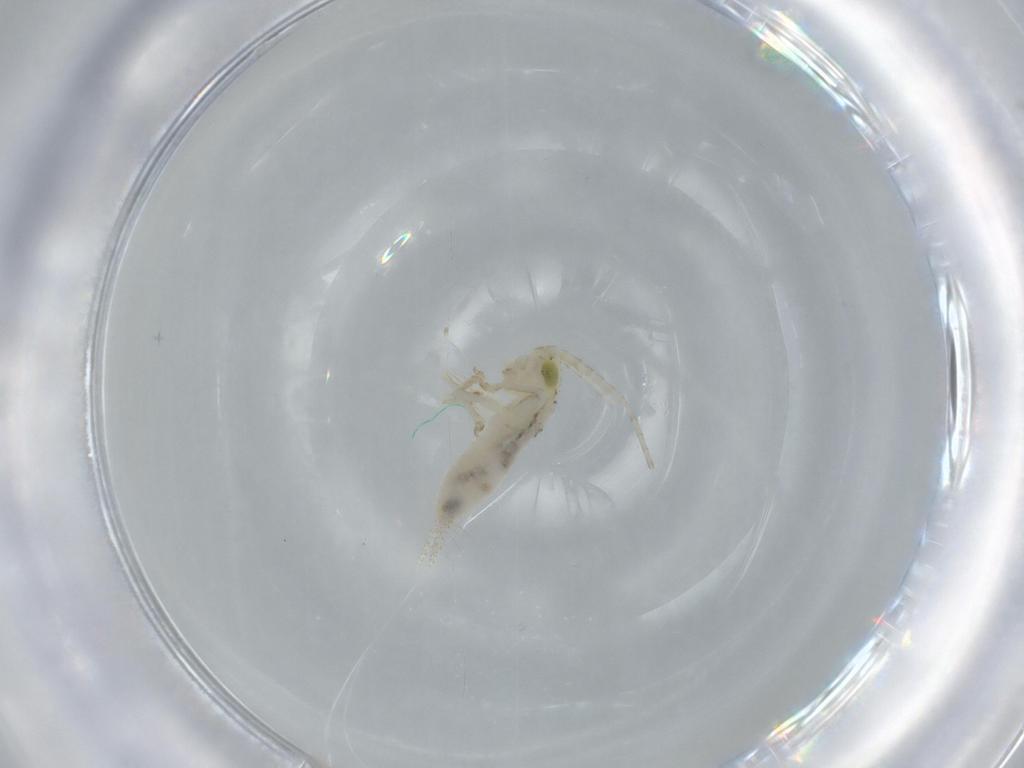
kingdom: Animalia
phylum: Arthropoda
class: Insecta
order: Orthoptera
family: Trigonidiidae
